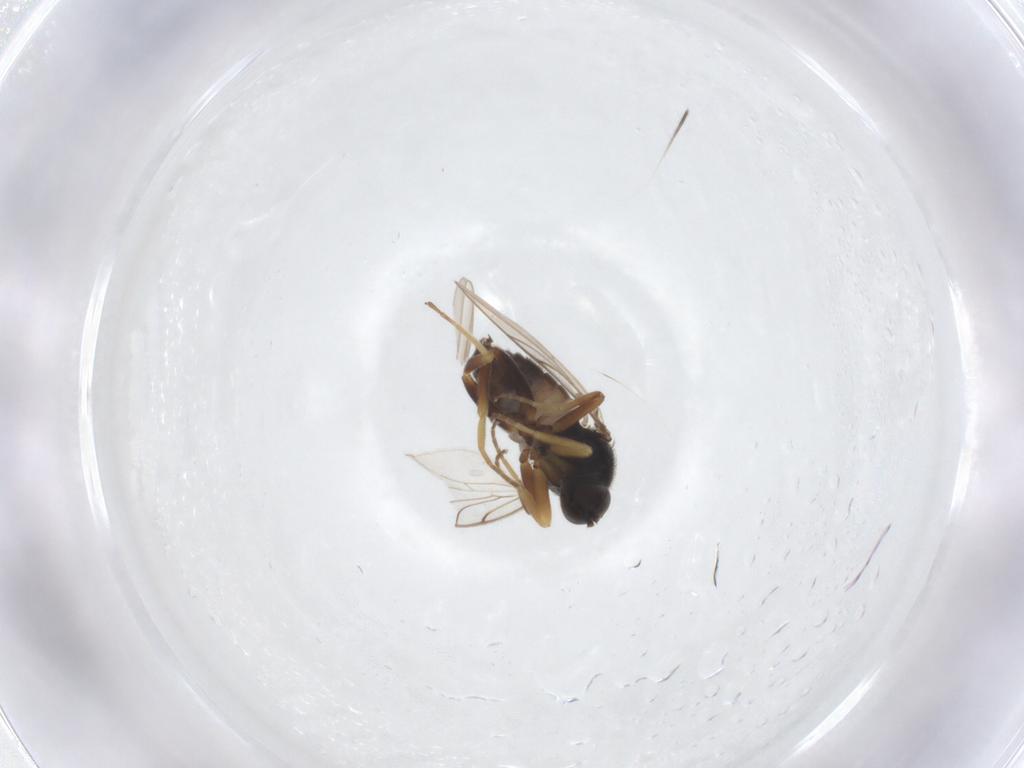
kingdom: Animalia
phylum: Arthropoda
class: Insecta
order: Diptera
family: Hybotidae
